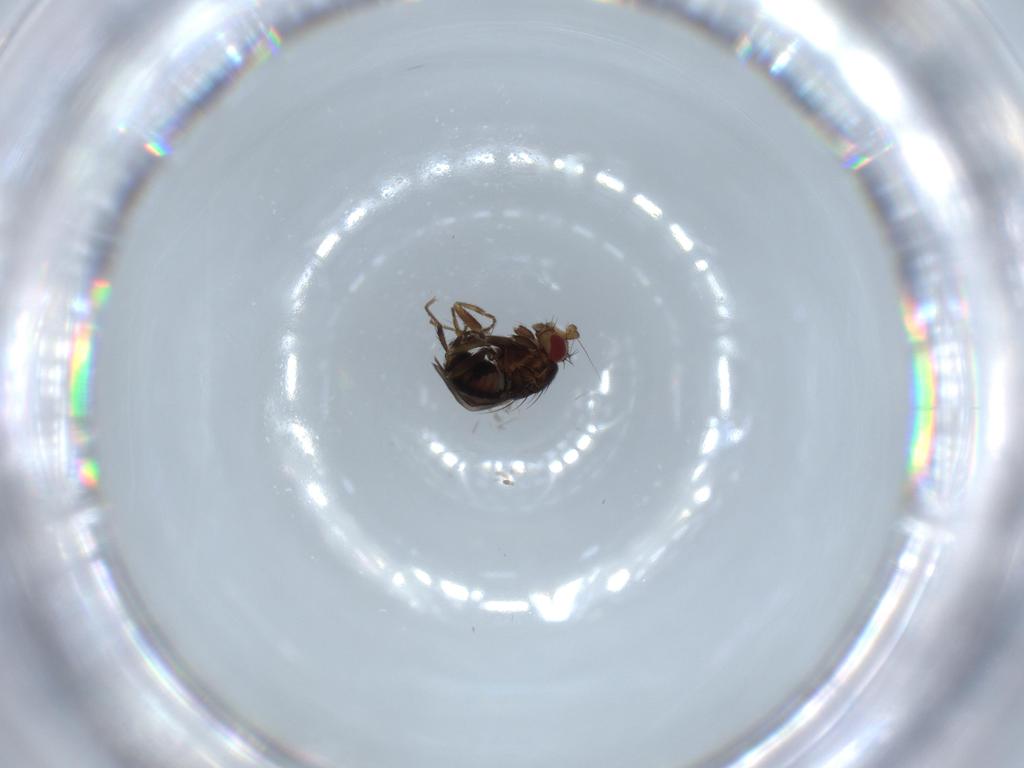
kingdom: Animalia
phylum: Arthropoda
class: Insecta
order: Diptera
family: Sphaeroceridae
